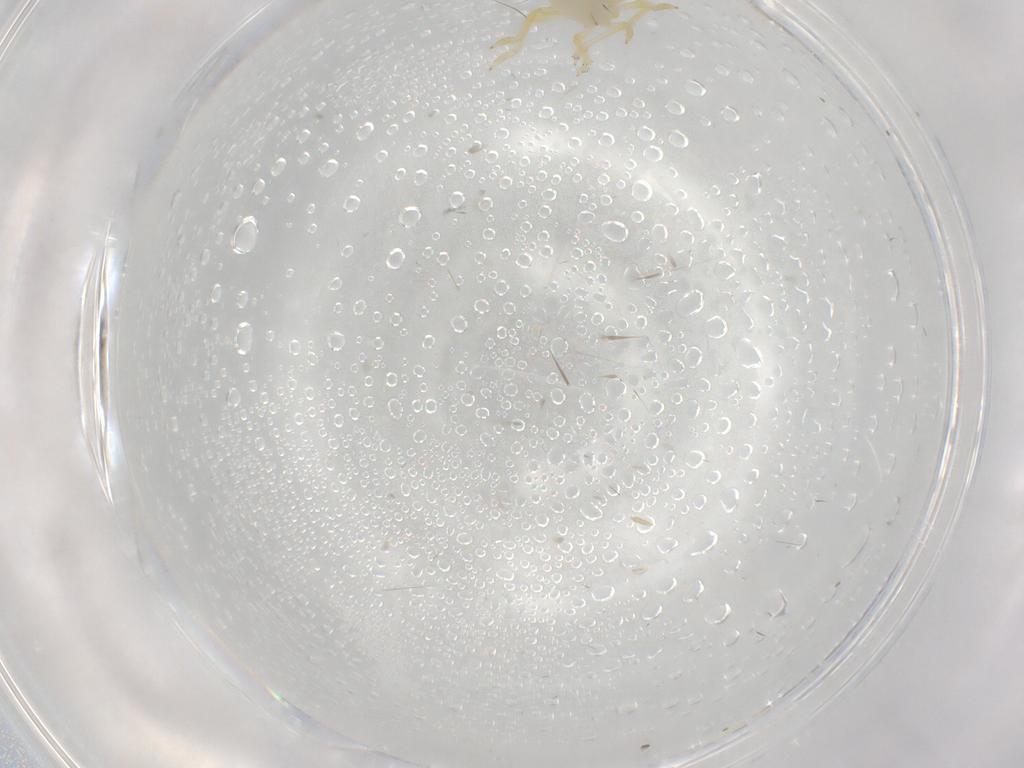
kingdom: Animalia
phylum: Arthropoda
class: Insecta
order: Hemiptera
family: Fulgoroidea_incertae_sedis
